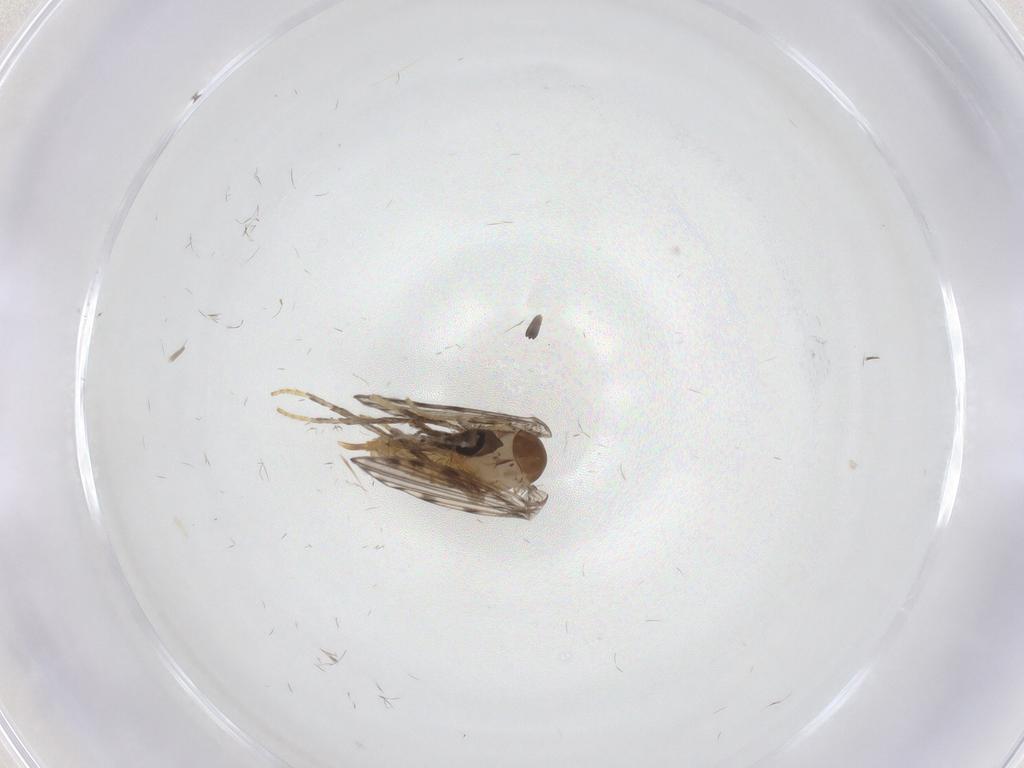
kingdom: Animalia
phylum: Arthropoda
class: Insecta
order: Diptera
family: Psychodidae
